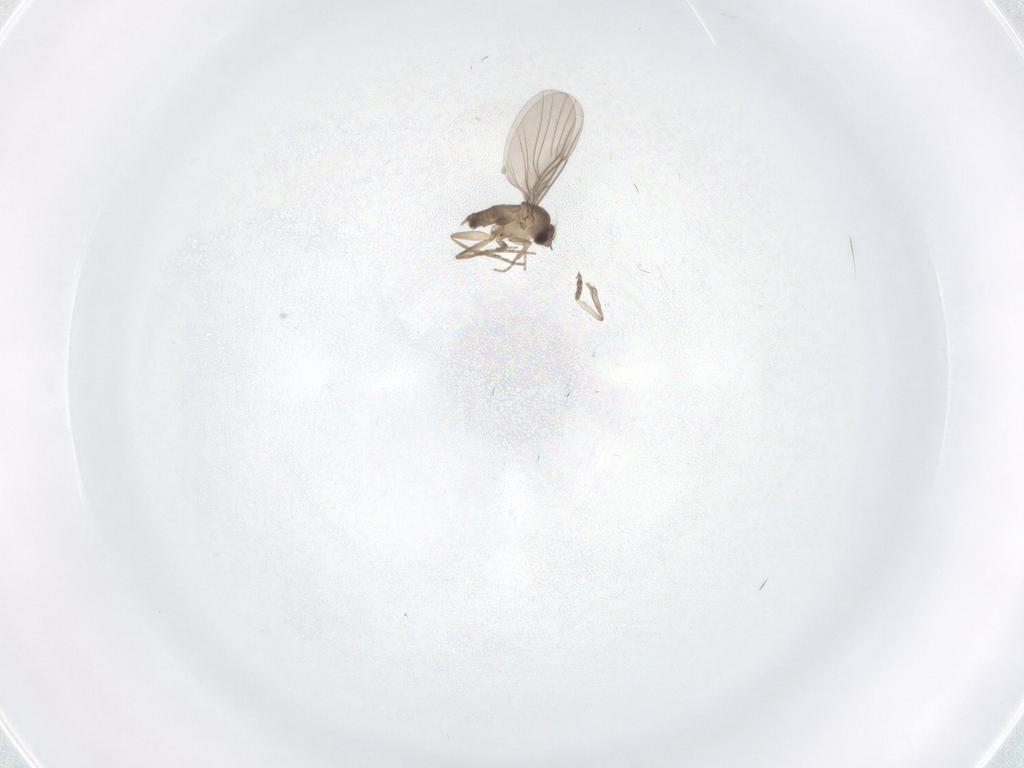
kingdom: Animalia
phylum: Arthropoda
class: Insecta
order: Diptera
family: Phoridae
